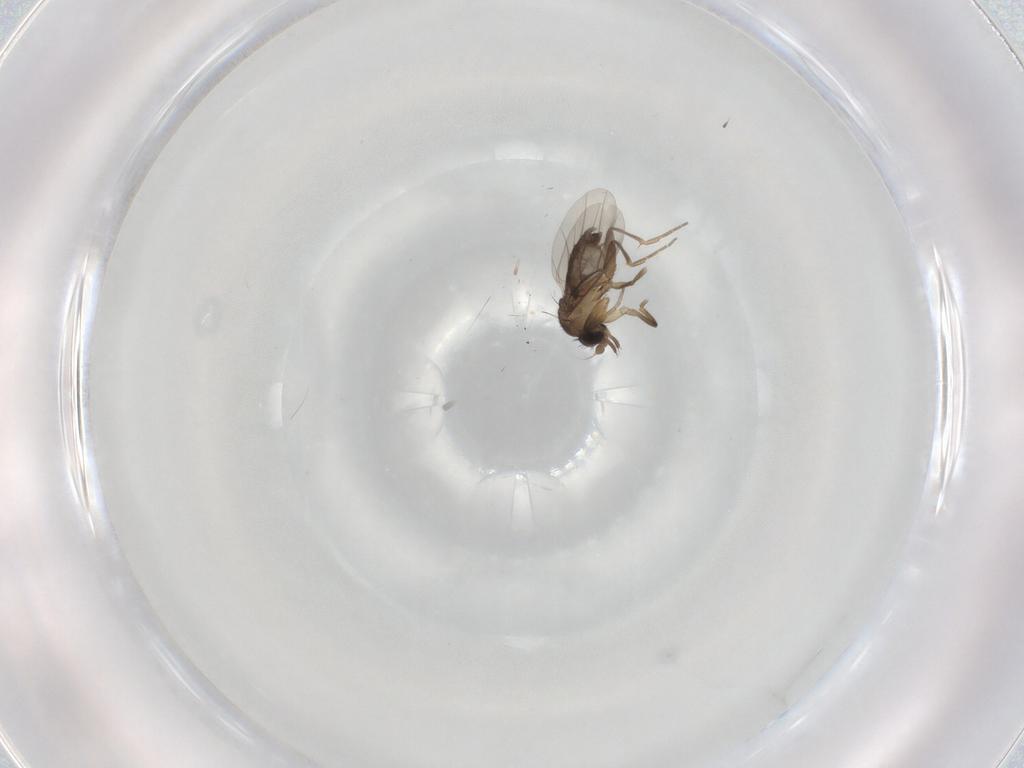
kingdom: Animalia
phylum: Arthropoda
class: Insecta
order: Diptera
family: Phoridae
